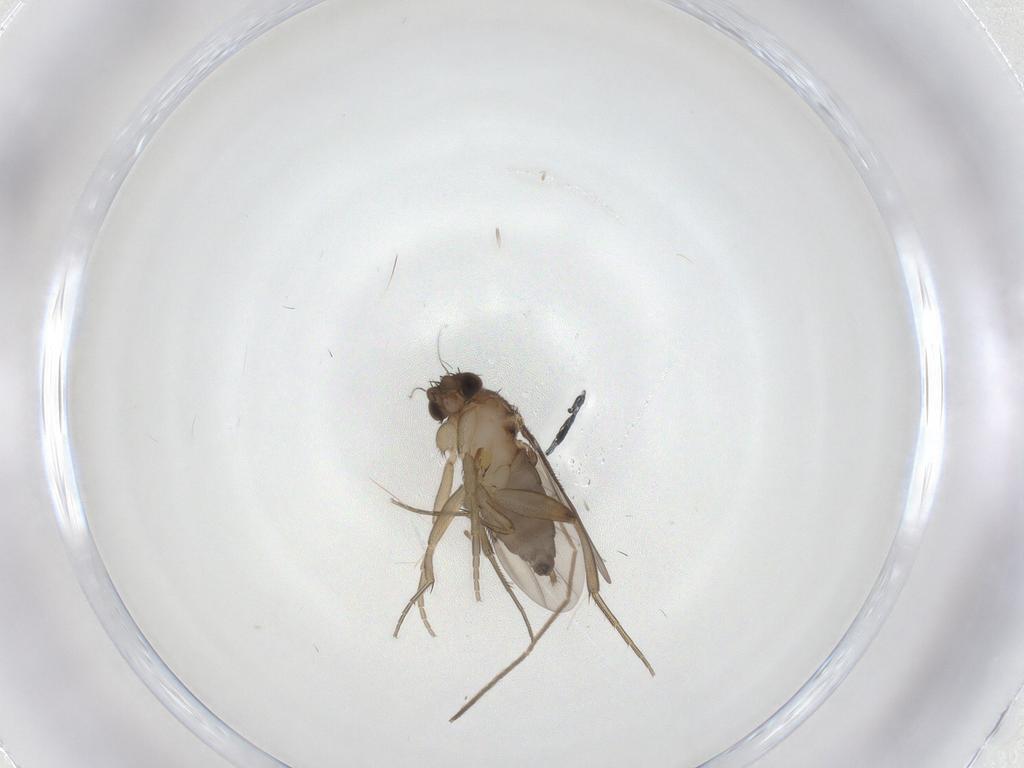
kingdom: Animalia
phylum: Arthropoda
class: Insecta
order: Diptera
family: Phoridae
